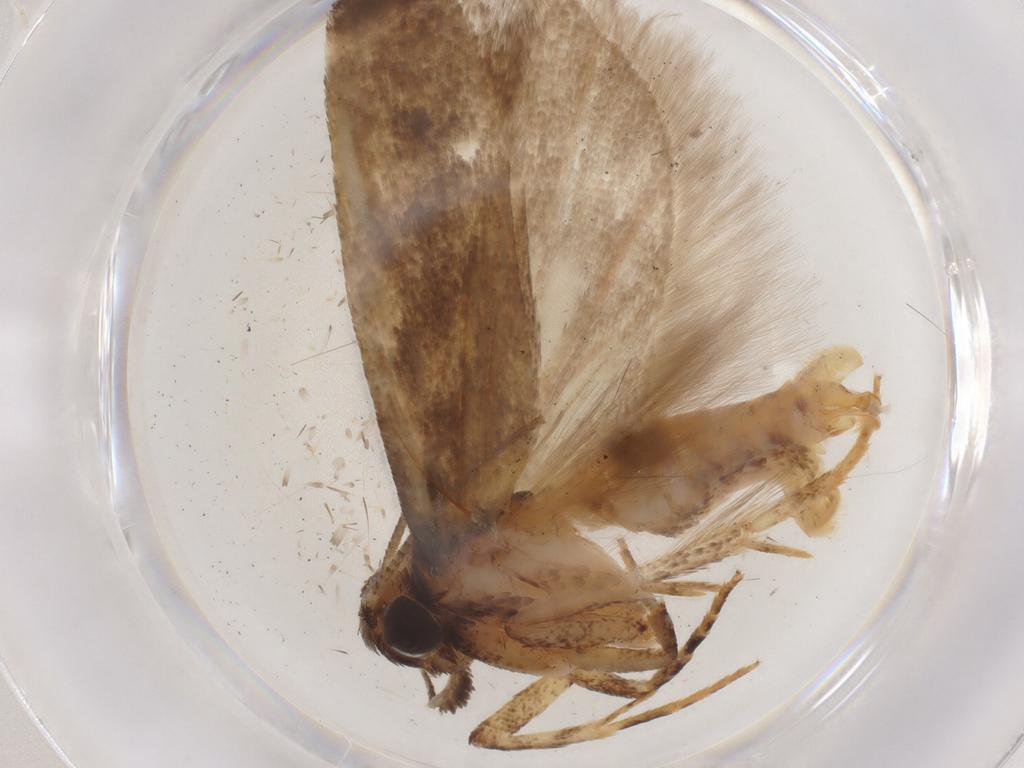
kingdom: Animalia
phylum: Arthropoda
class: Insecta
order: Lepidoptera
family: Gelechiidae
